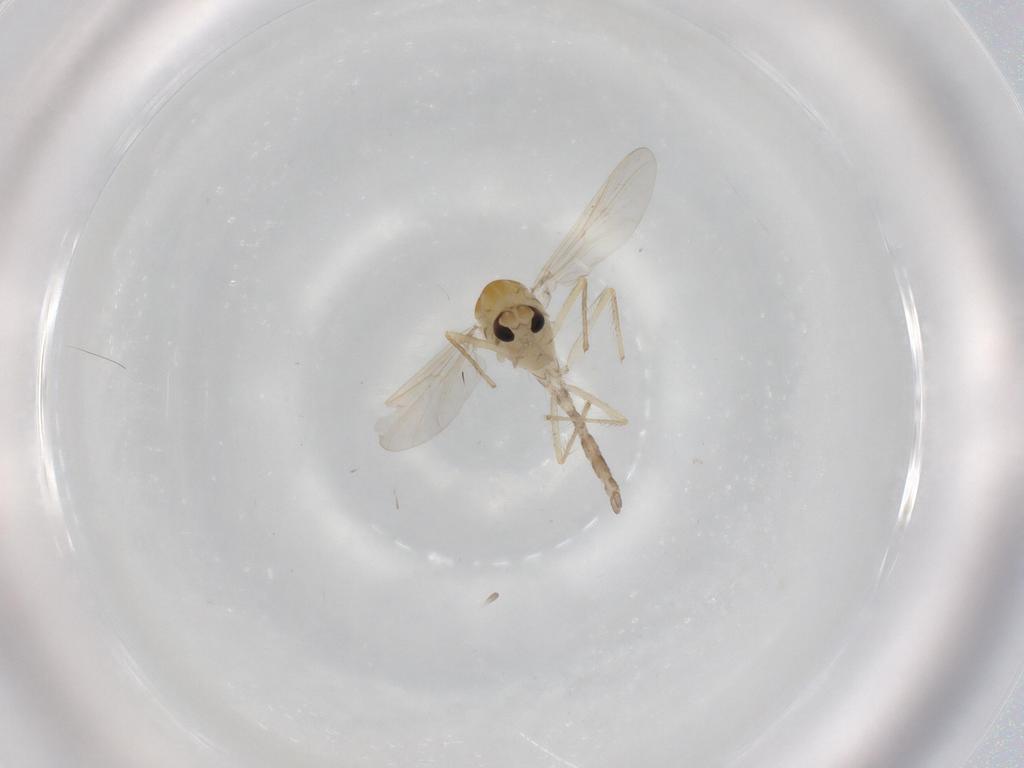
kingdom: Animalia
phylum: Arthropoda
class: Insecta
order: Diptera
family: Chironomidae
